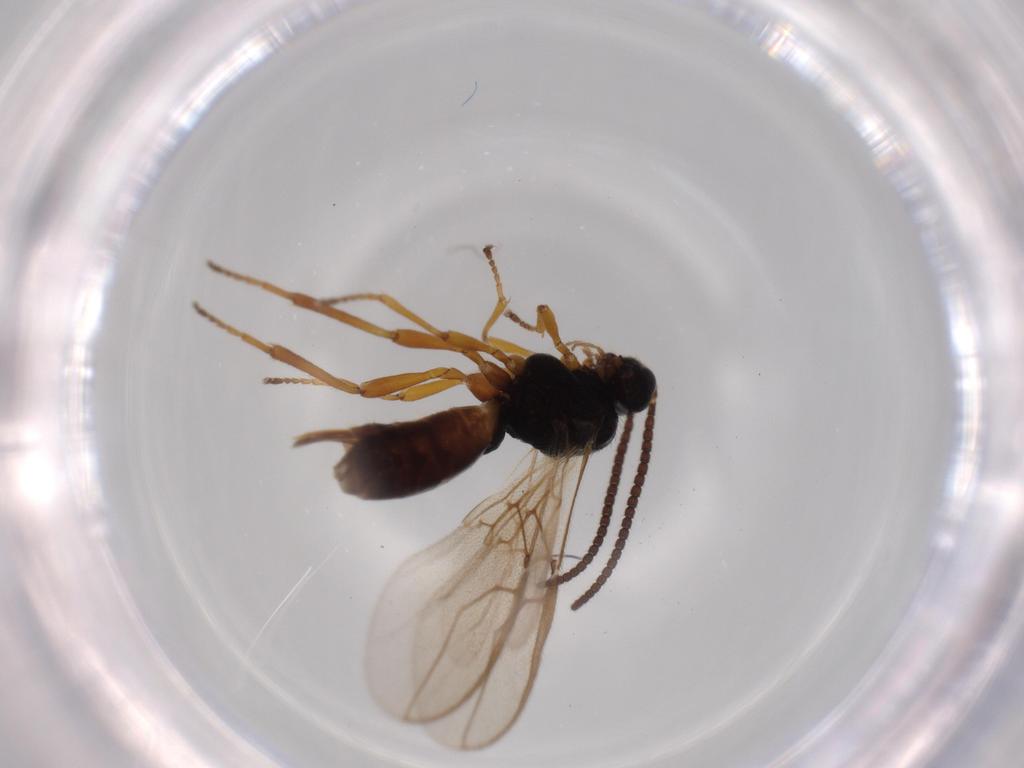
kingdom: Animalia
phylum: Arthropoda
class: Insecta
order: Hymenoptera
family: Braconidae
